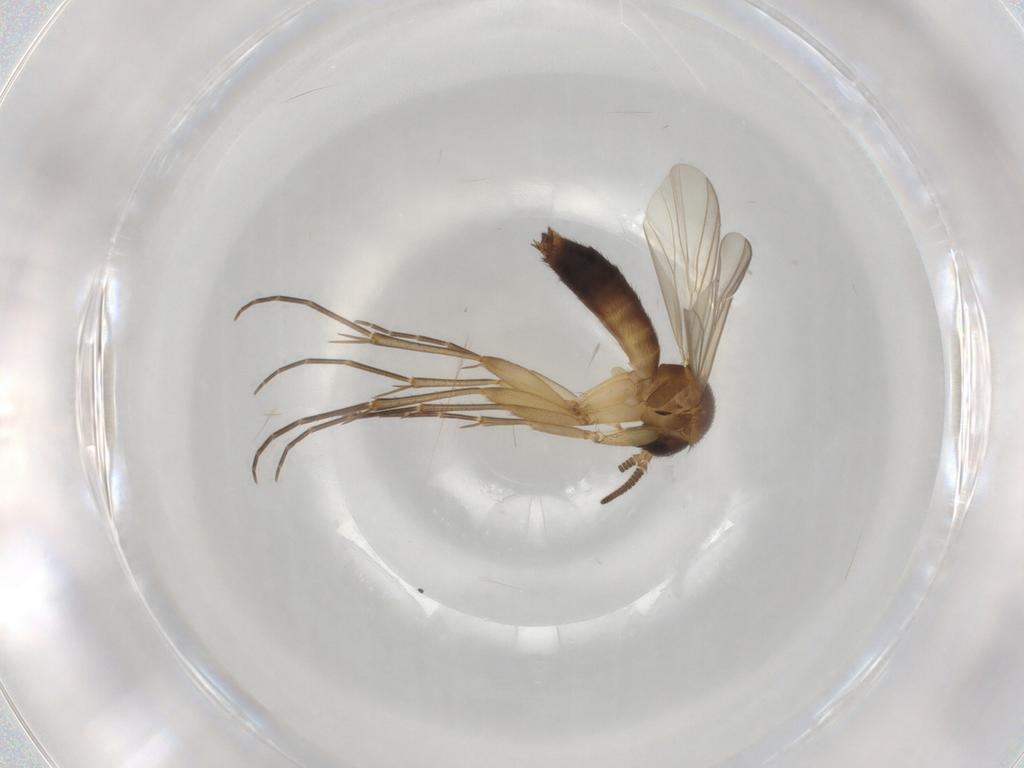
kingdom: Animalia
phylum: Arthropoda
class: Insecta
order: Diptera
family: Mycetophilidae
